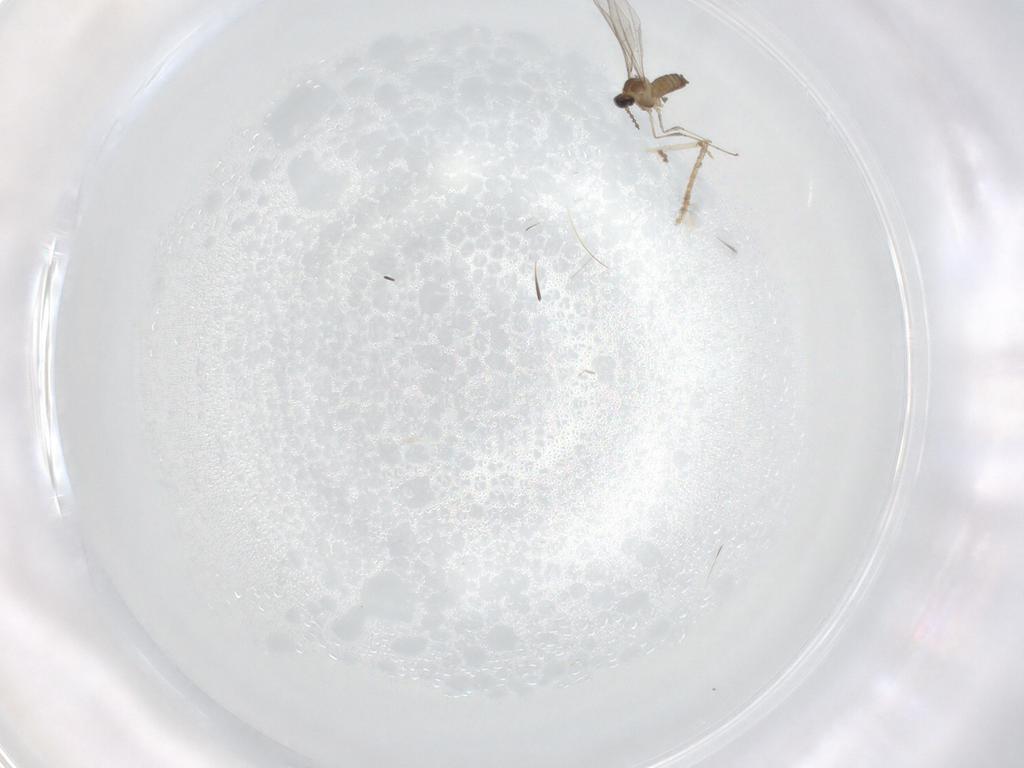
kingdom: Animalia
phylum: Arthropoda
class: Insecta
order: Diptera
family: Cecidomyiidae
